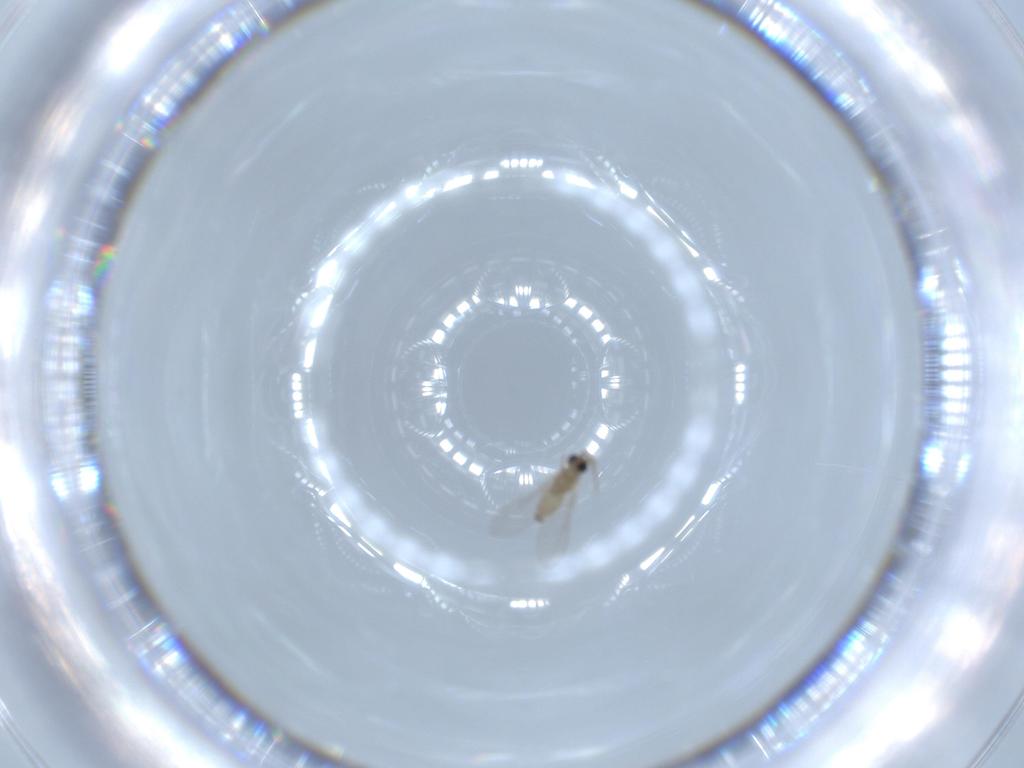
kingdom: Animalia
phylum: Arthropoda
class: Insecta
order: Diptera
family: Cecidomyiidae
